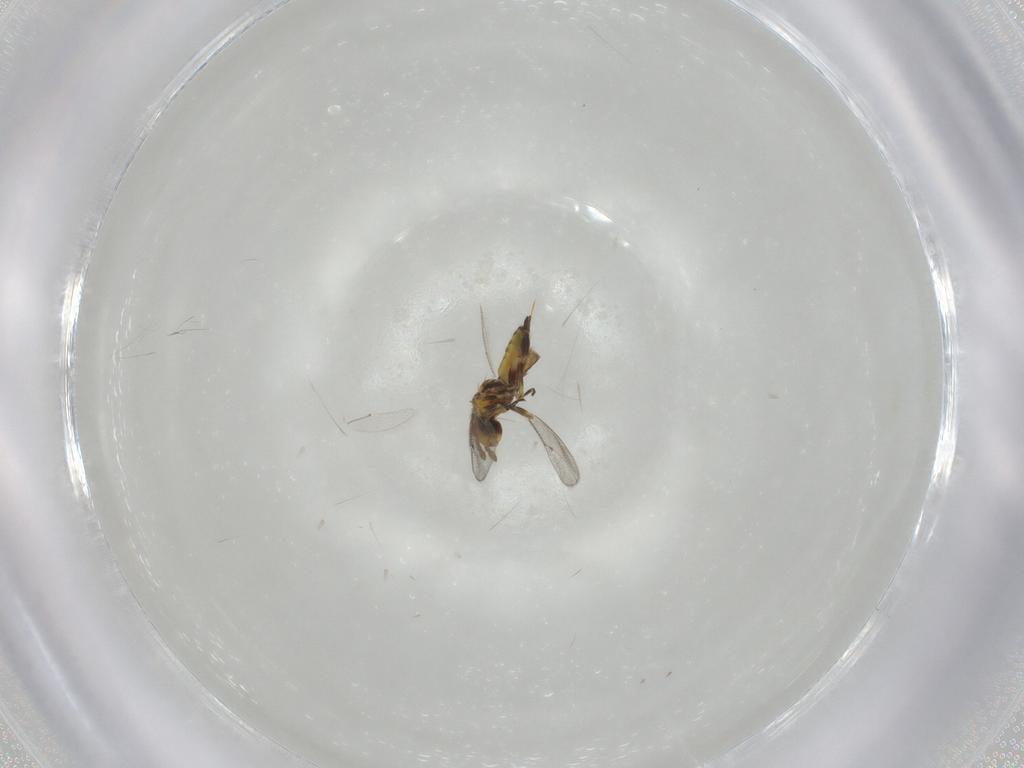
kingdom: Animalia
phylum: Arthropoda
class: Insecta
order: Hymenoptera
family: Eulophidae
